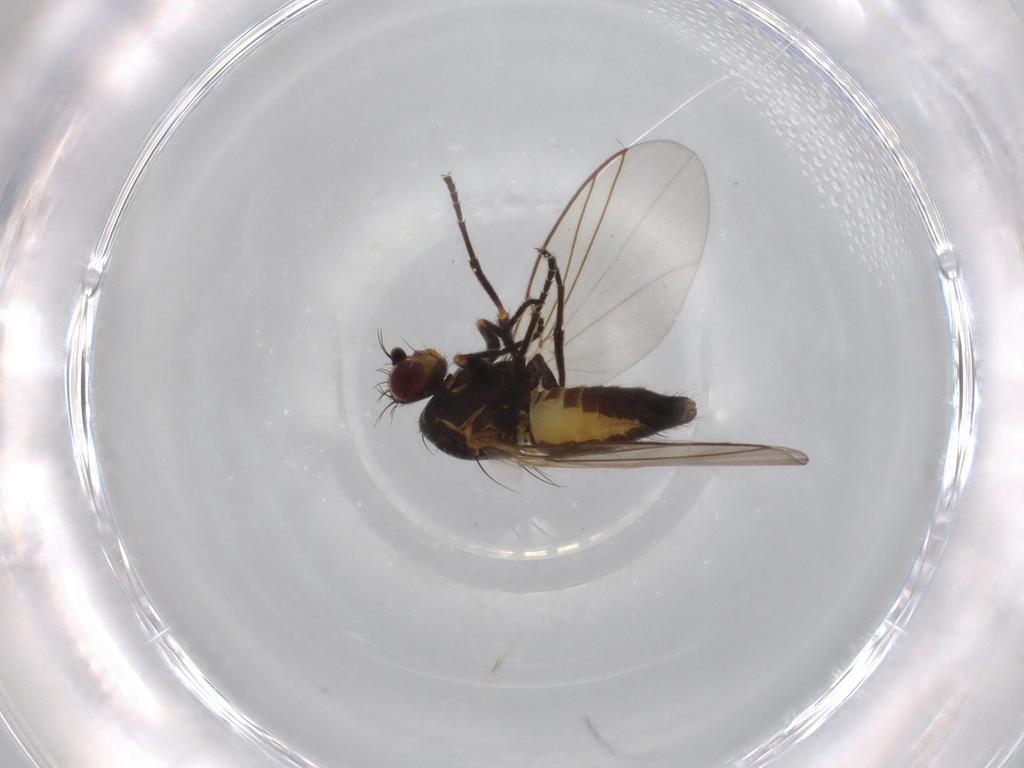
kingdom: Animalia
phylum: Arthropoda
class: Insecta
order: Diptera
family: Agromyzidae
